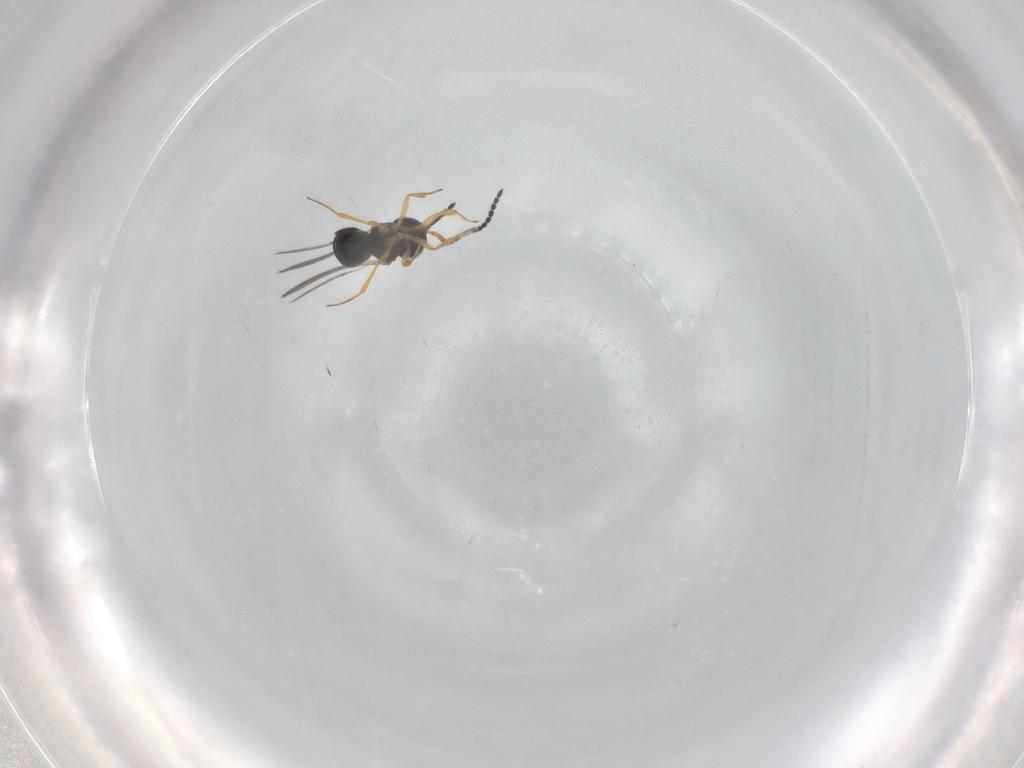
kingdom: Animalia
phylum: Arthropoda
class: Insecta
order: Hymenoptera
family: Scelionidae
